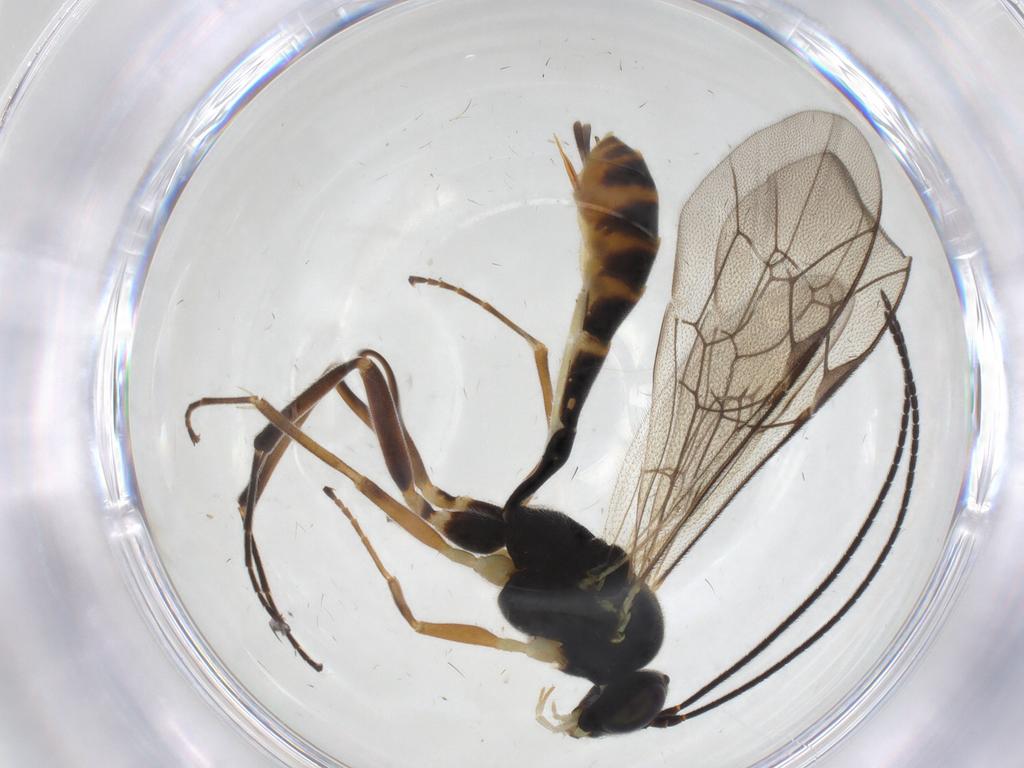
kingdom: Animalia
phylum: Arthropoda
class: Insecta
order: Hymenoptera
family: Ichneumonidae
